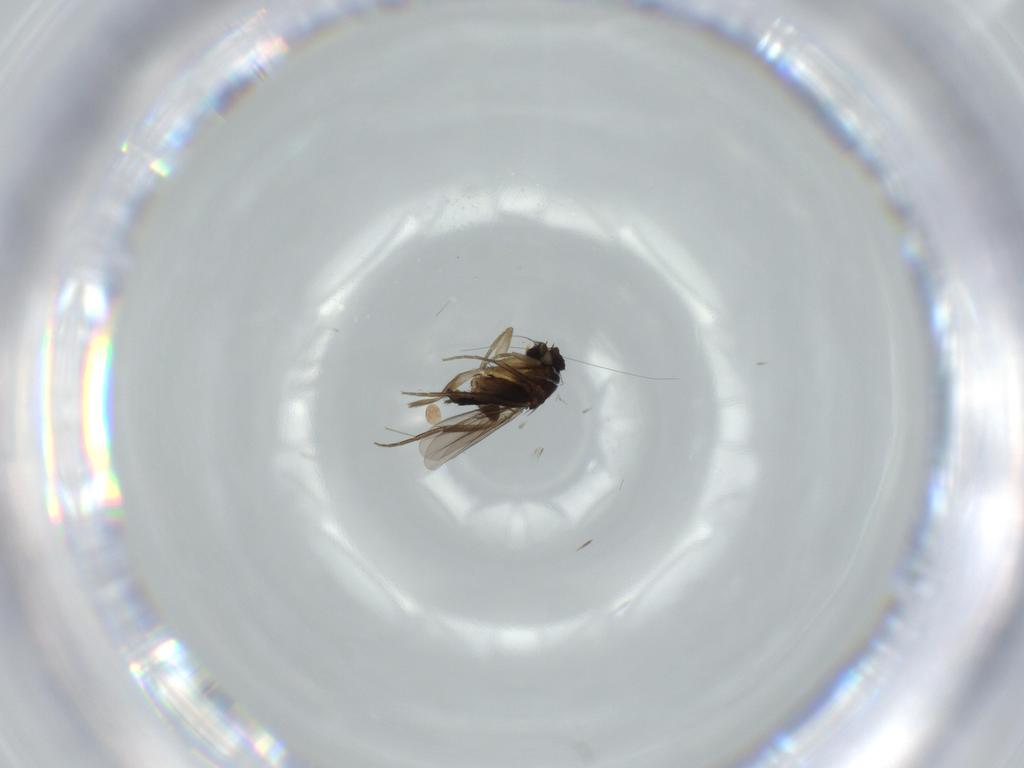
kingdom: Animalia
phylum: Arthropoda
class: Insecta
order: Diptera
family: Phoridae
